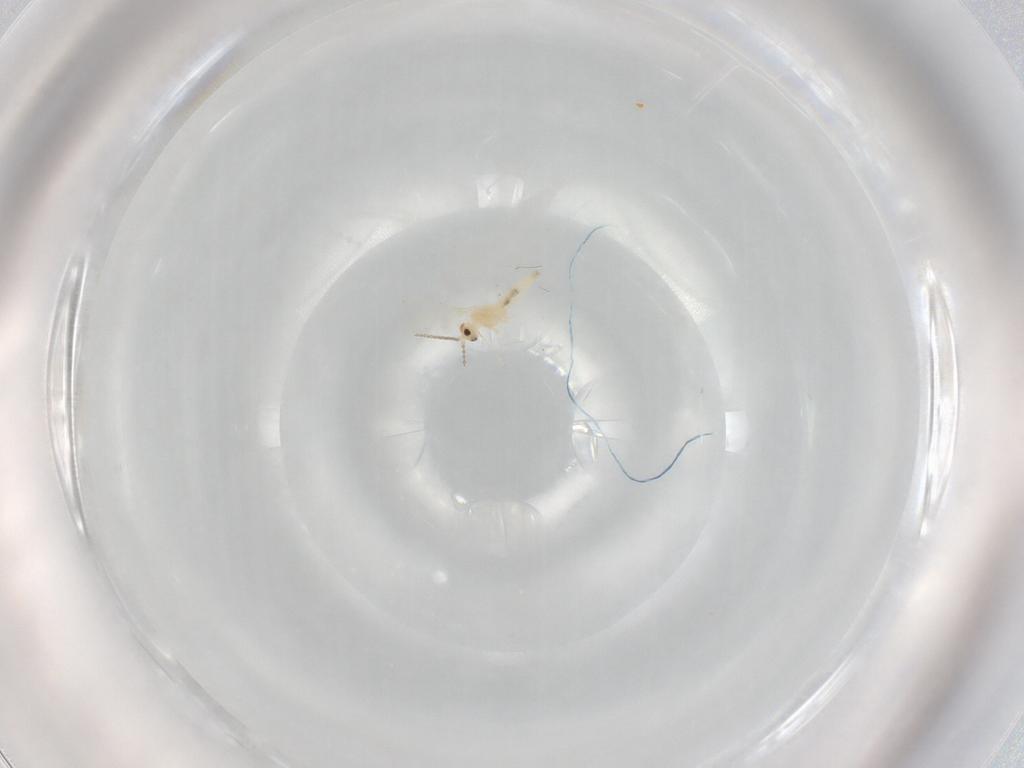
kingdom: Animalia
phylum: Arthropoda
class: Insecta
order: Diptera
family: Cecidomyiidae
